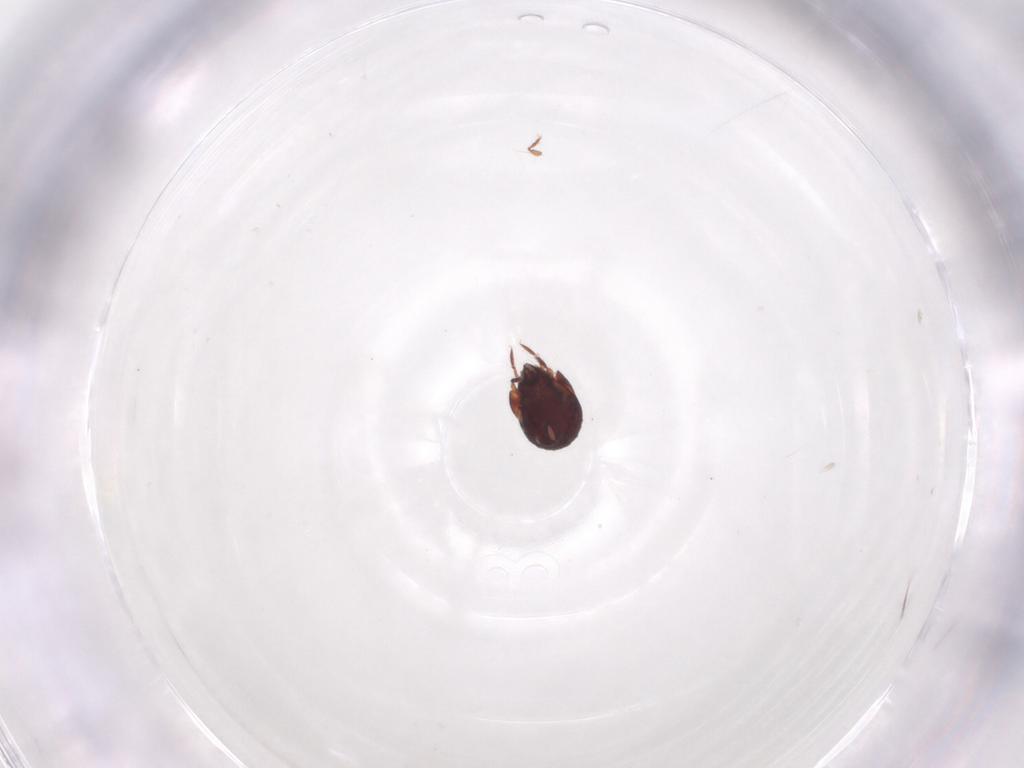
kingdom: Animalia
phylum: Arthropoda
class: Arachnida
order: Sarcoptiformes
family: Humerobatidae
